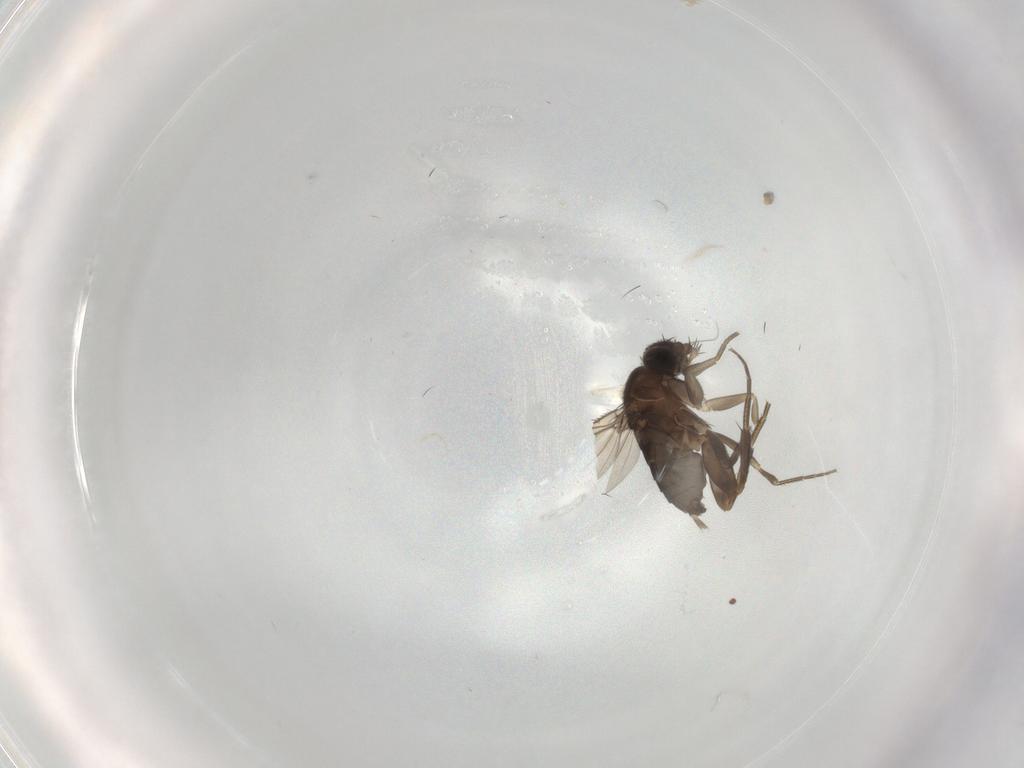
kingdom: Animalia
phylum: Arthropoda
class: Insecta
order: Diptera
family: Phoridae
